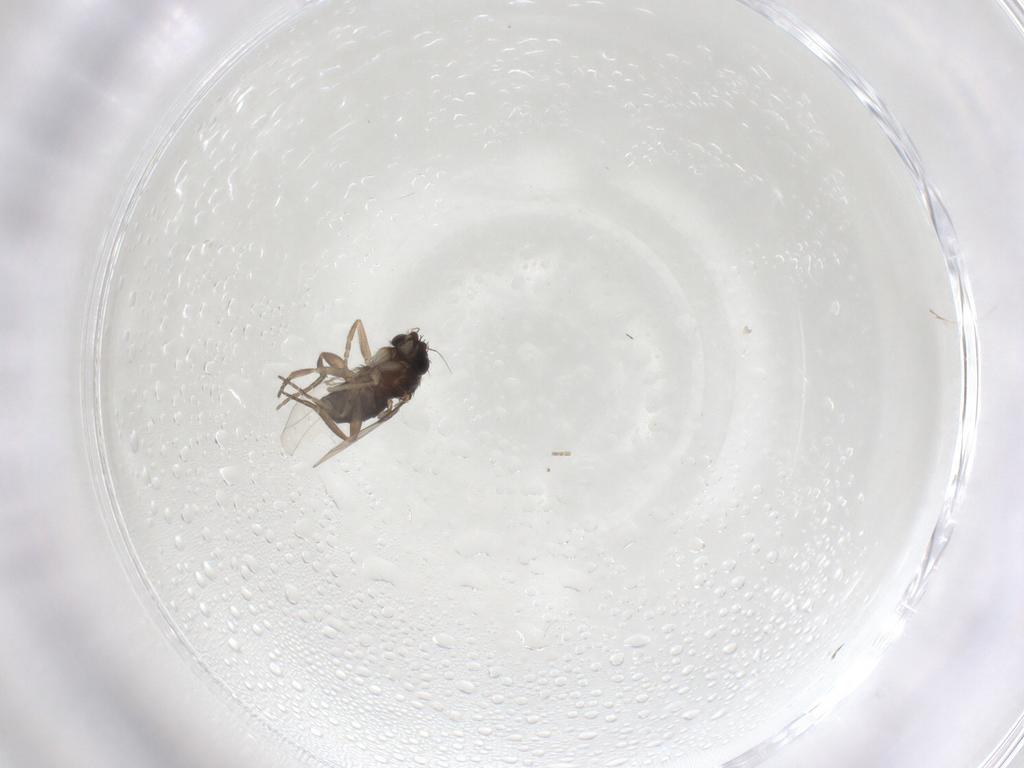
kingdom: Animalia
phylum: Arthropoda
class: Insecta
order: Diptera
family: Phoridae
